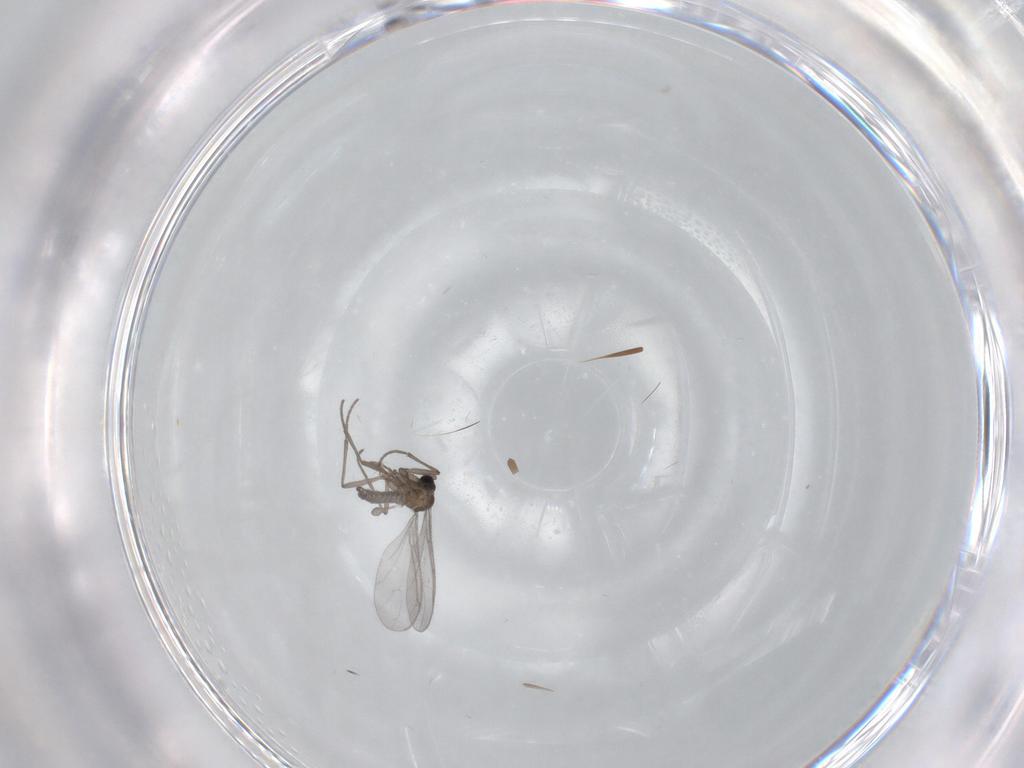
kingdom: Animalia
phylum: Arthropoda
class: Insecta
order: Diptera
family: Sciaridae
